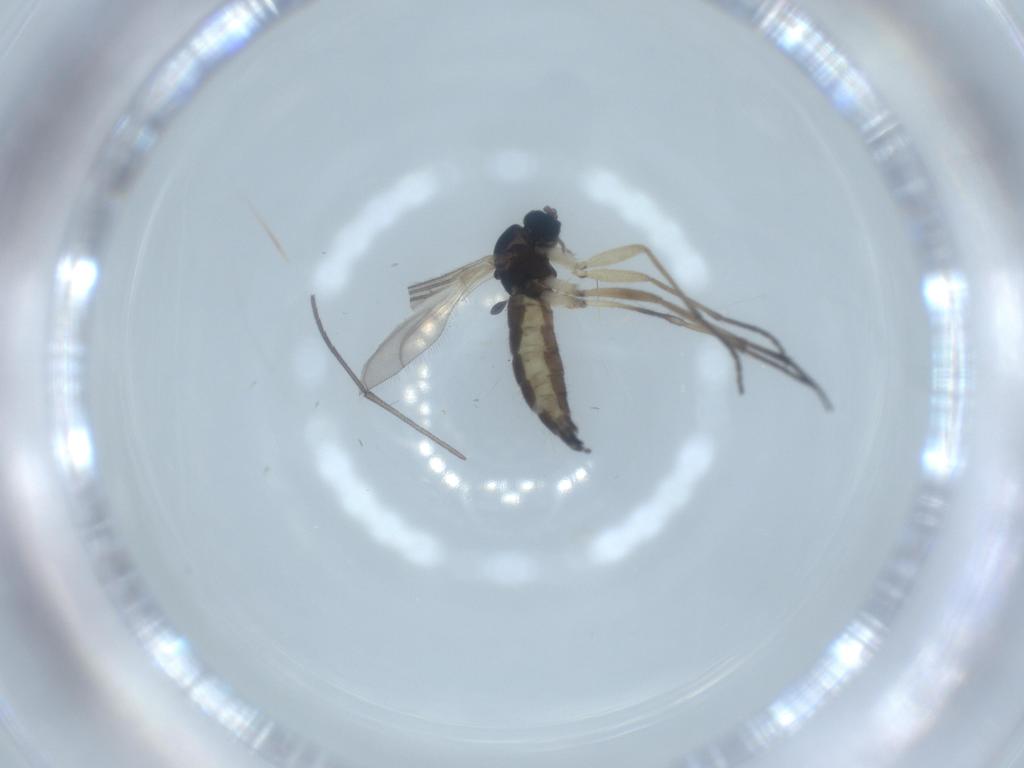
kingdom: Animalia
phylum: Arthropoda
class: Insecta
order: Diptera
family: Sciaridae
